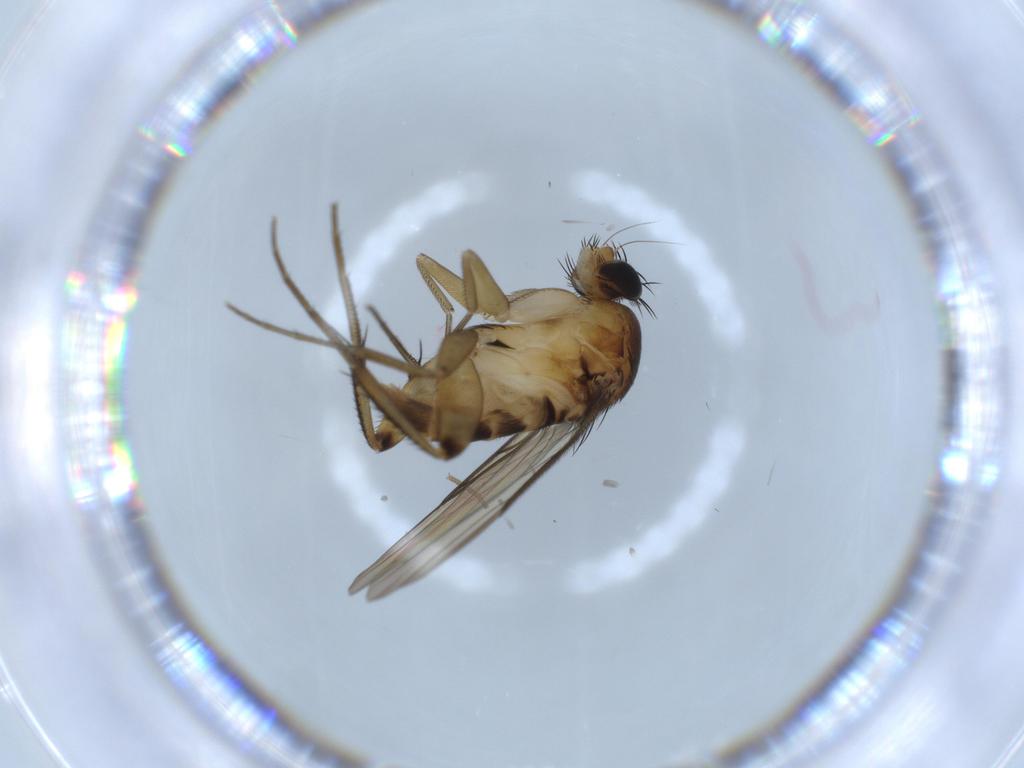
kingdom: Animalia
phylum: Arthropoda
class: Insecta
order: Diptera
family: Phoridae
